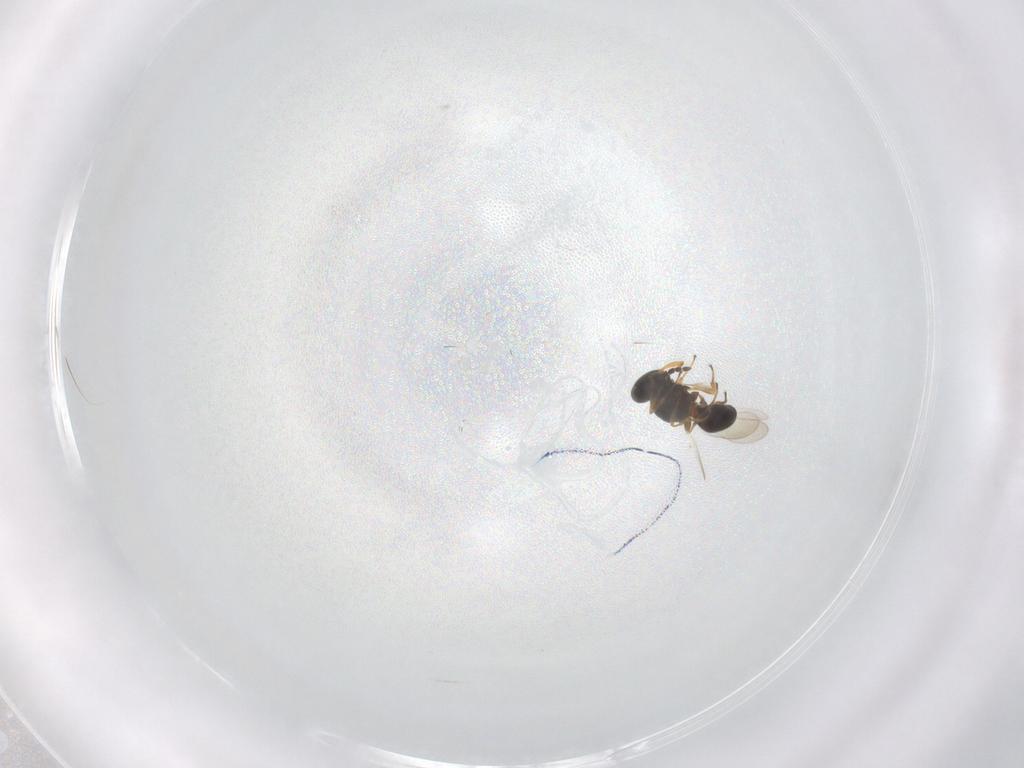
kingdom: Animalia
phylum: Arthropoda
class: Insecta
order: Hymenoptera
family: Platygastridae
